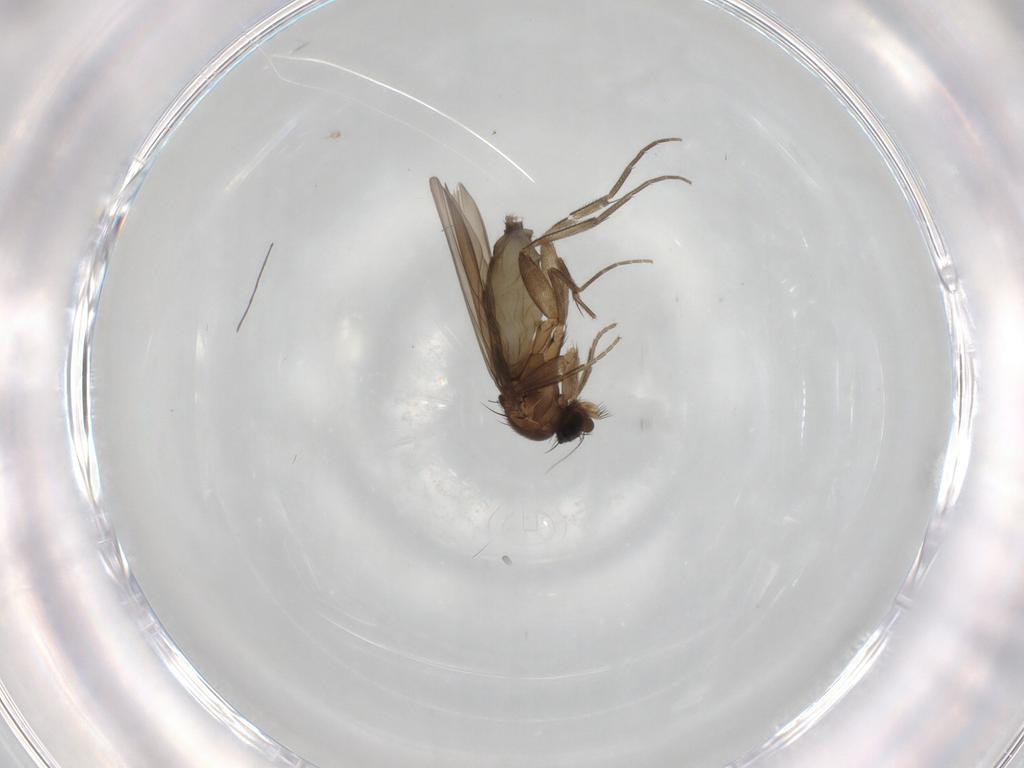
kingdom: Animalia
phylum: Arthropoda
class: Insecta
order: Diptera
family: Phoridae
